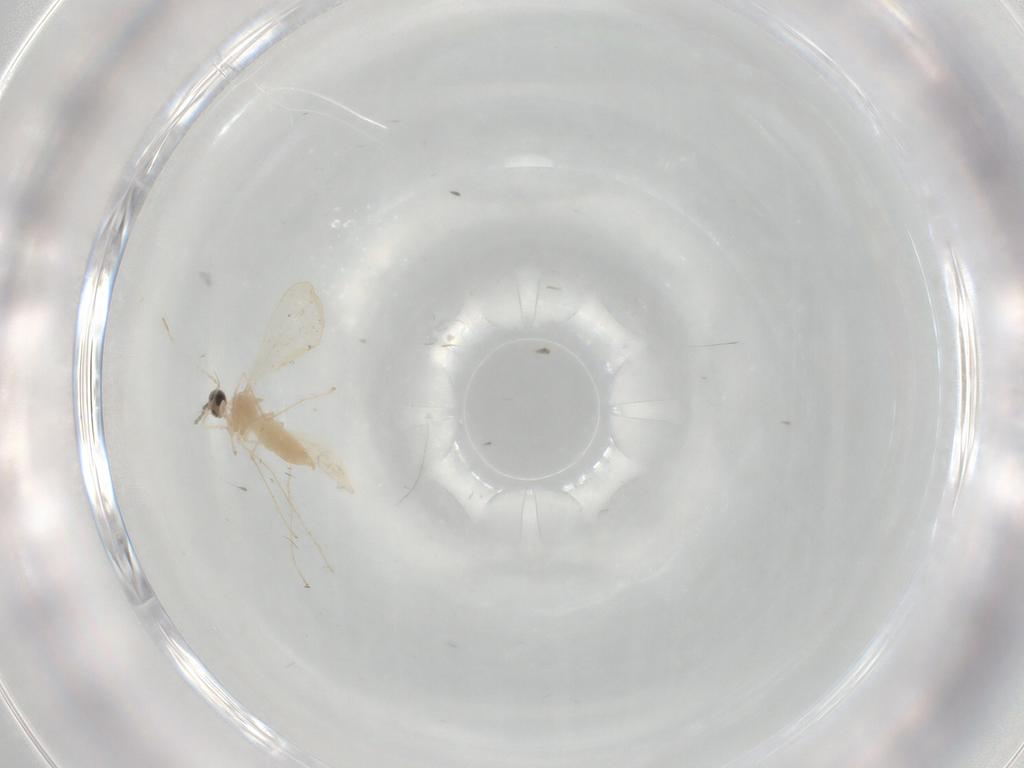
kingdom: Animalia
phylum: Arthropoda
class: Insecta
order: Diptera
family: Cecidomyiidae
